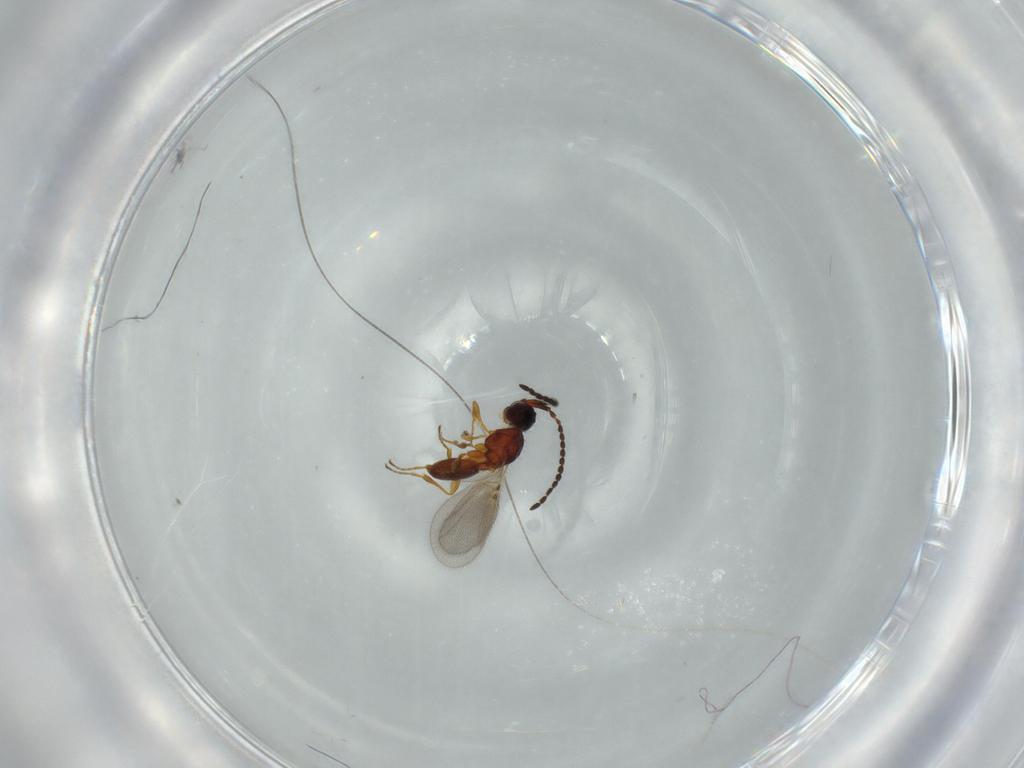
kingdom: Animalia
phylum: Arthropoda
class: Insecta
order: Hymenoptera
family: Diapriidae
